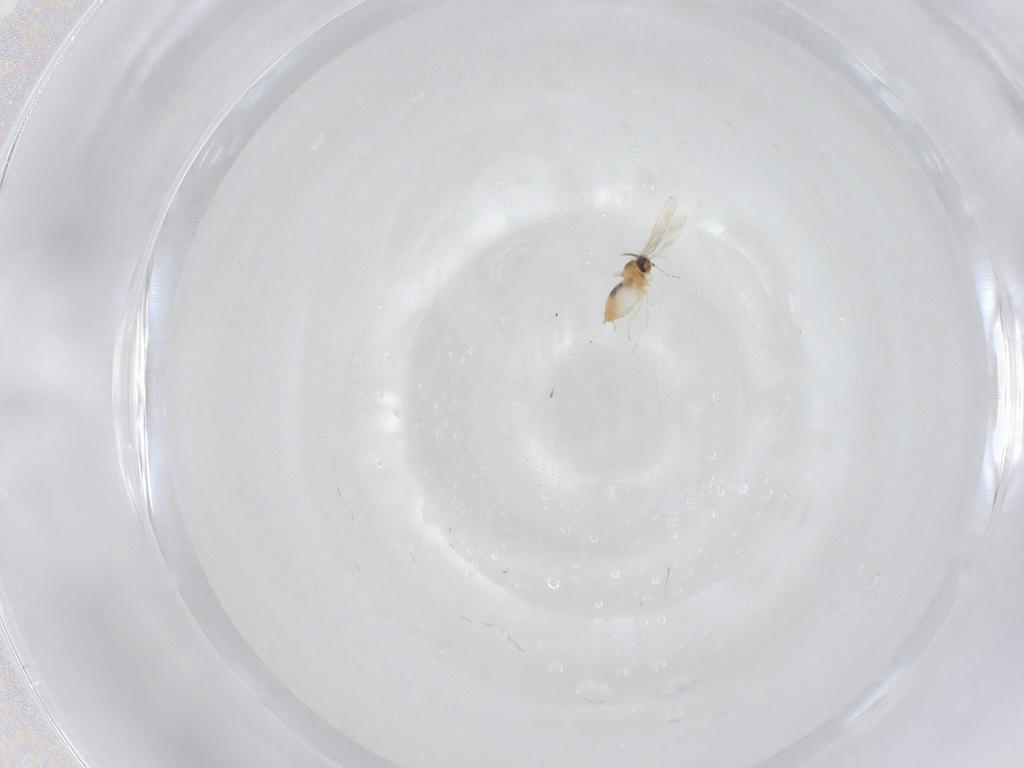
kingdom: Animalia
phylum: Arthropoda
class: Insecta
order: Diptera
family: Cecidomyiidae
